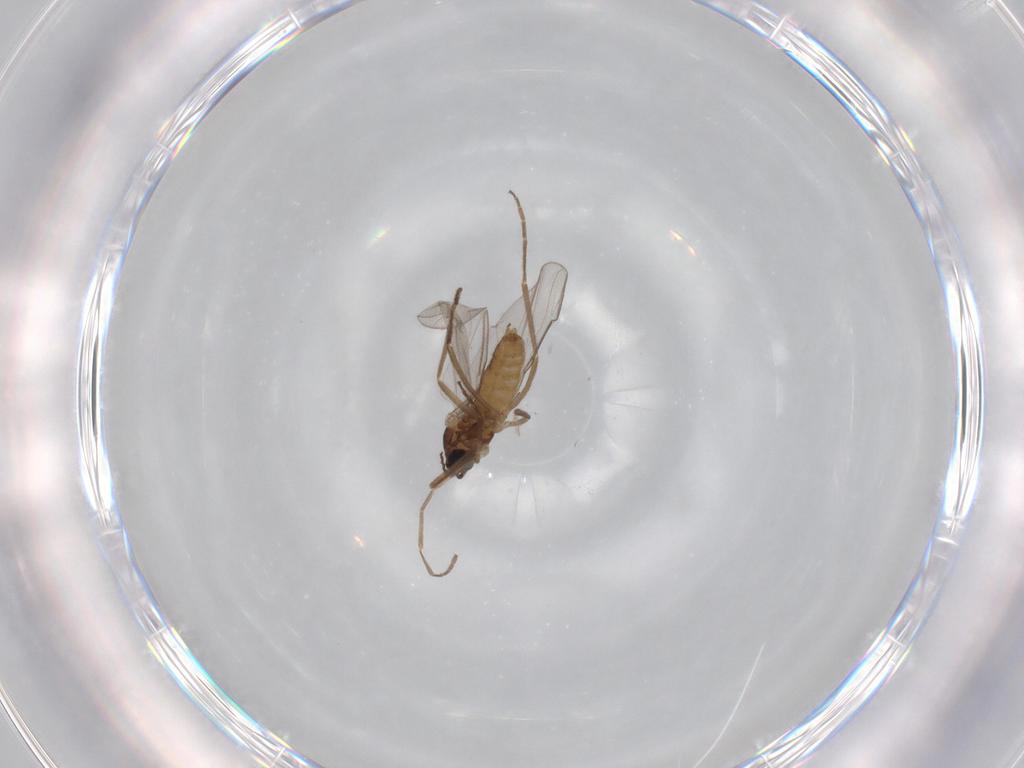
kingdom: Animalia
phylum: Arthropoda
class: Insecta
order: Diptera
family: Cecidomyiidae
